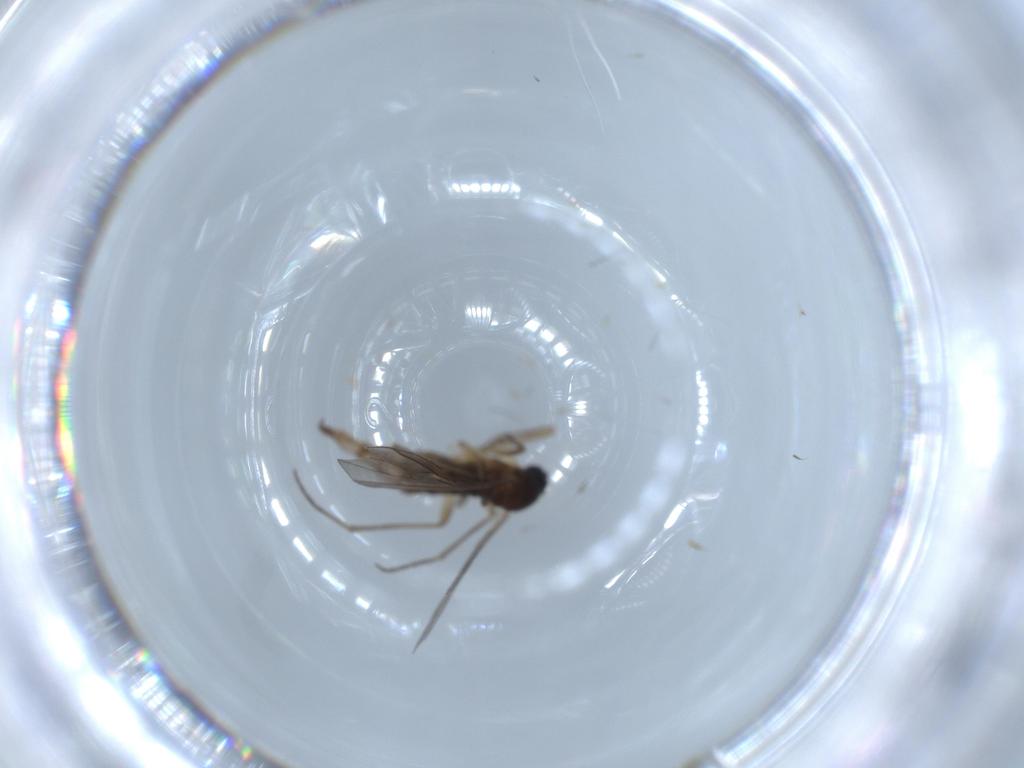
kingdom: Animalia
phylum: Arthropoda
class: Insecta
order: Diptera
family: Sciaridae
